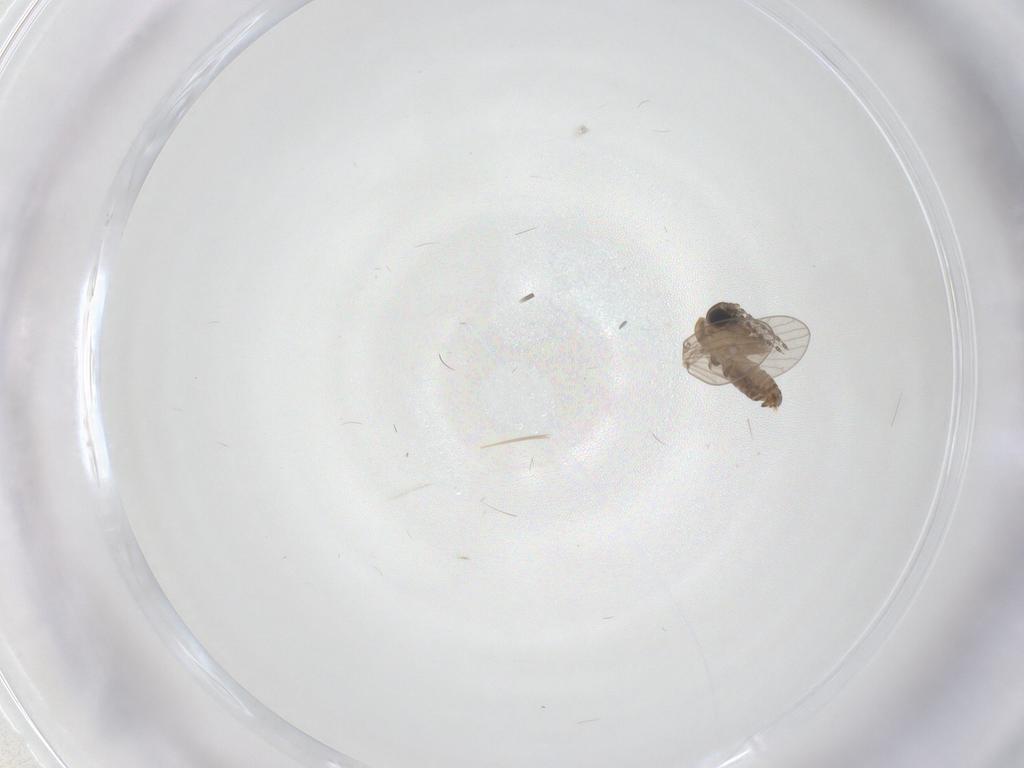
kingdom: Animalia
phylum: Arthropoda
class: Insecta
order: Diptera
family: Psychodidae
